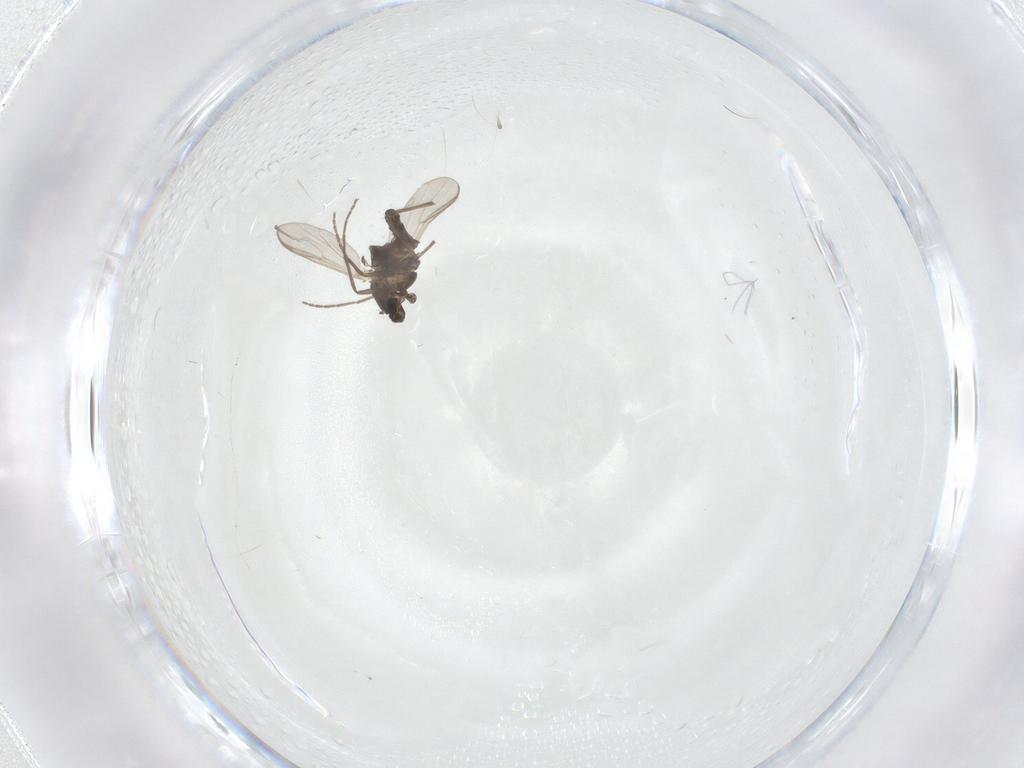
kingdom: Animalia
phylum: Arthropoda
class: Insecta
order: Diptera
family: Chironomidae
